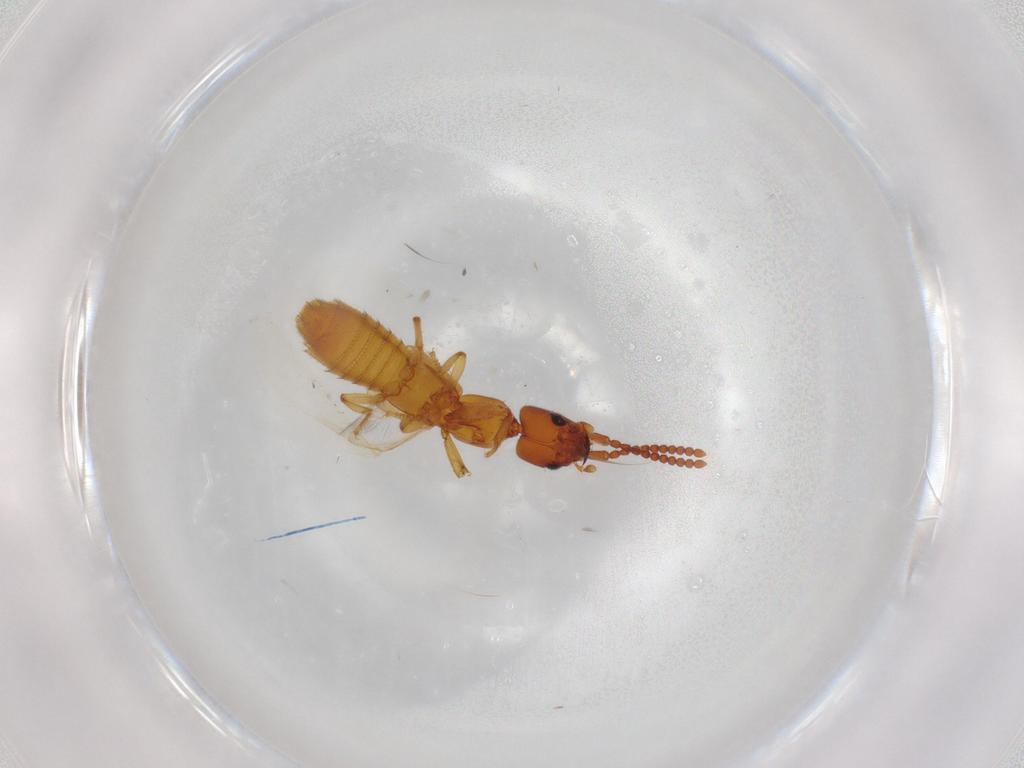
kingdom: Animalia
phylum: Arthropoda
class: Insecta
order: Coleoptera
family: Staphylinidae
